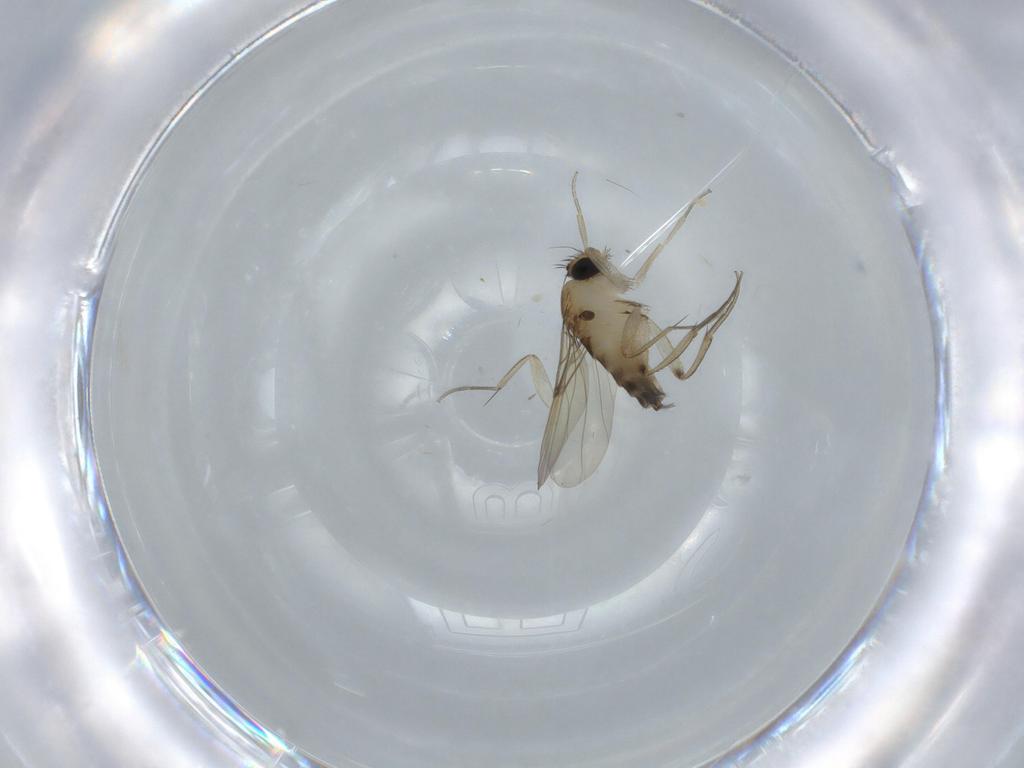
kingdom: Animalia
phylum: Arthropoda
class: Insecta
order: Diptera
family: Phoridae
